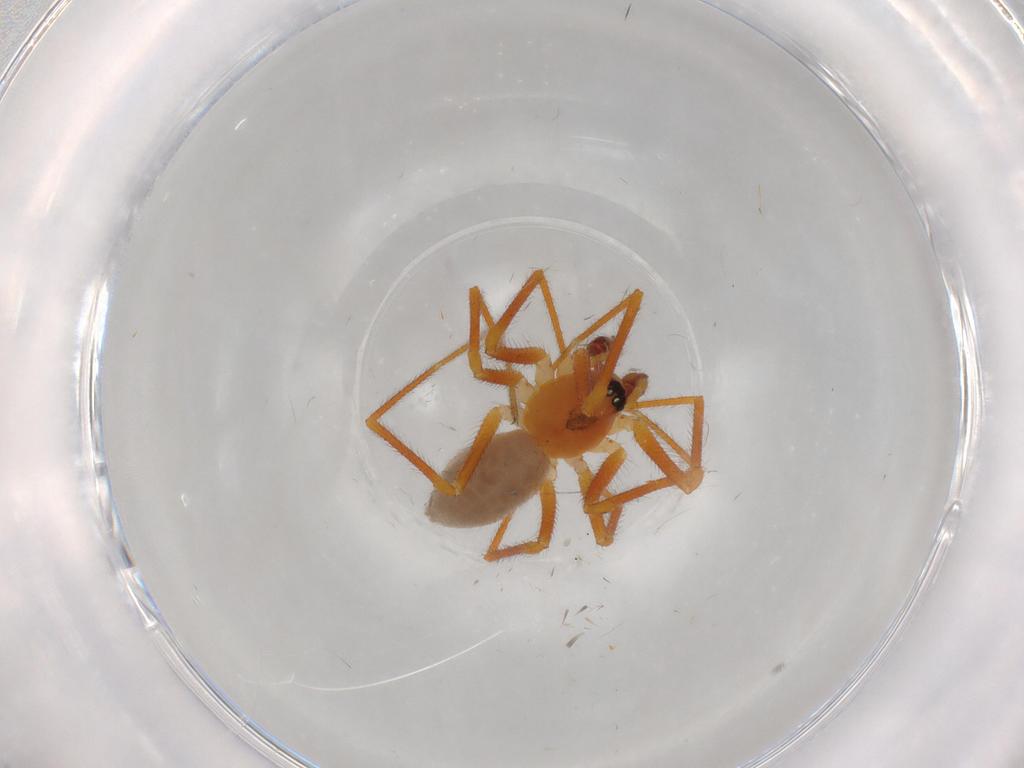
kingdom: Animalia
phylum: Arthropoda
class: Arachnida
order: Araneae
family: Linyphiidae
